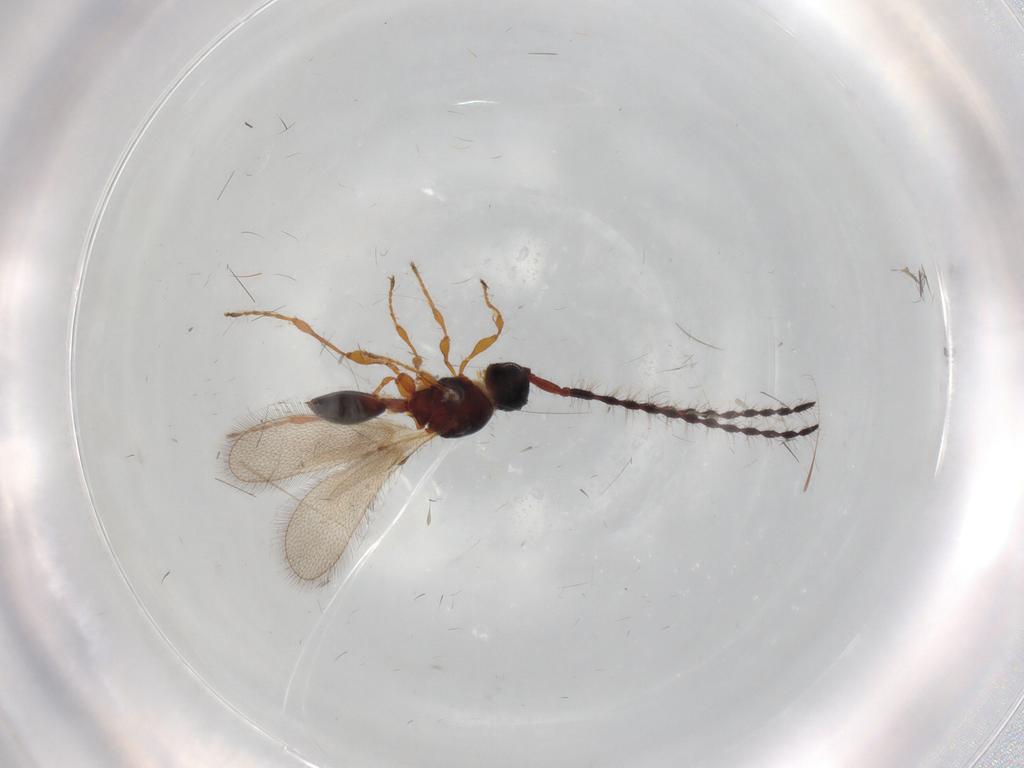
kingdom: Animalia
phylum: Arthropoda
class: Insecta
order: Hymenoptera
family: Diapriidae
